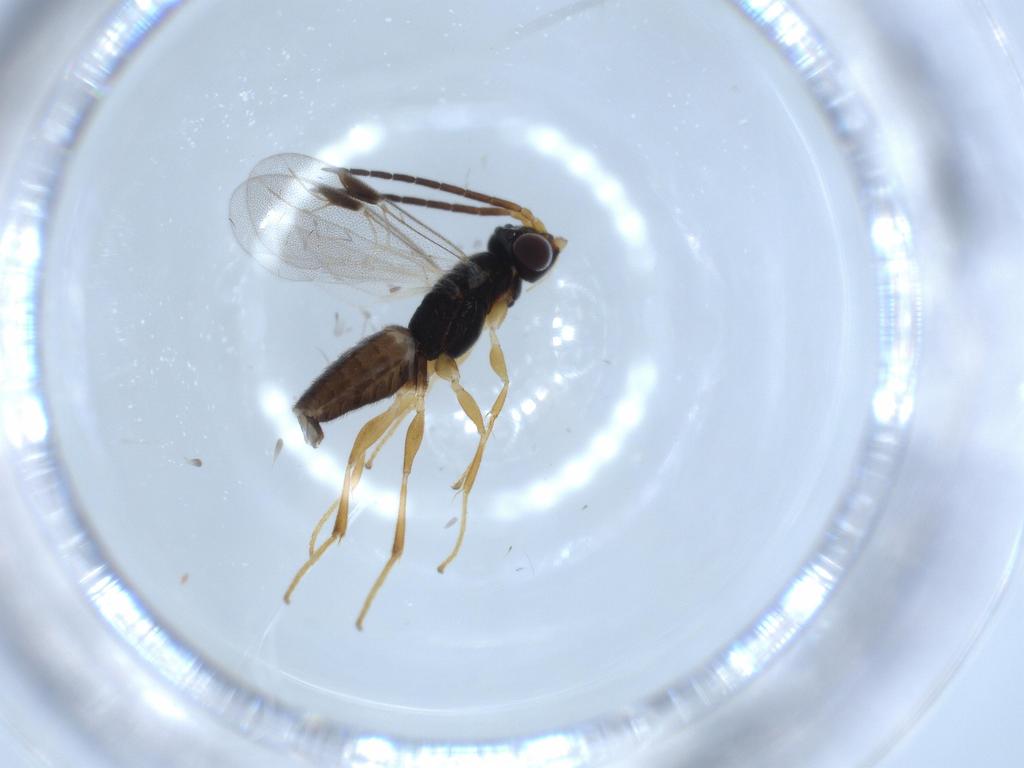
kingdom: Animalia
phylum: Arthropoda
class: Insecta
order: Hymenoptera
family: Dryinidae
